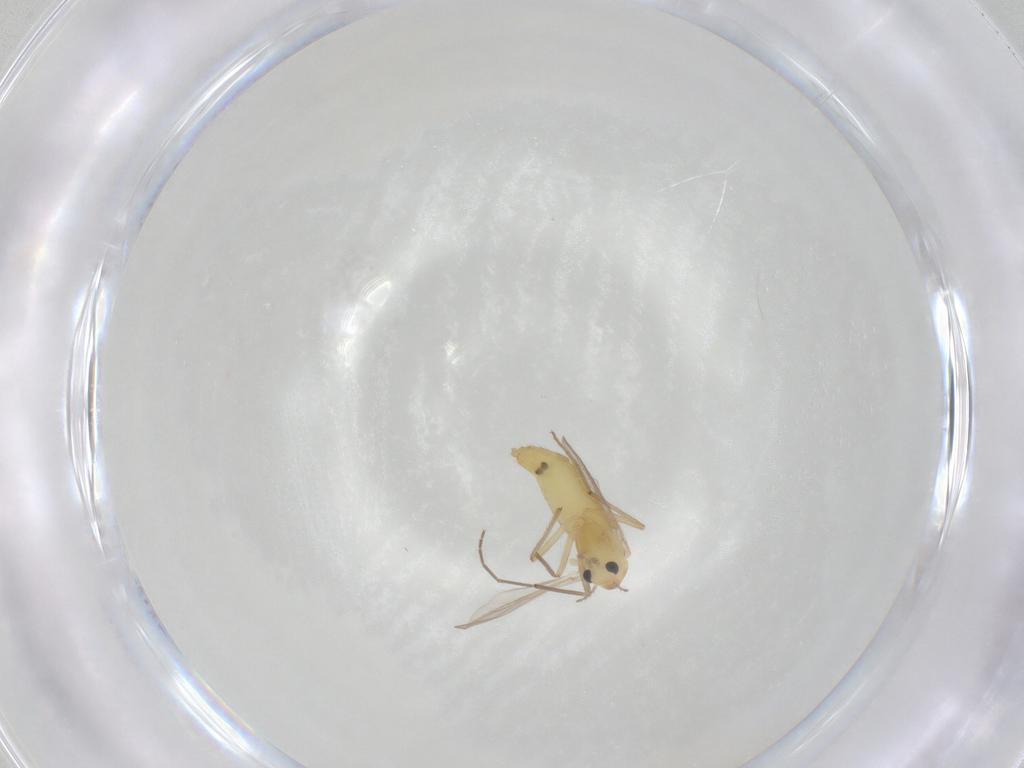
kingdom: Animalia
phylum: Arthropoda
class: Insecta
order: Diptera
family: Chironomidae
